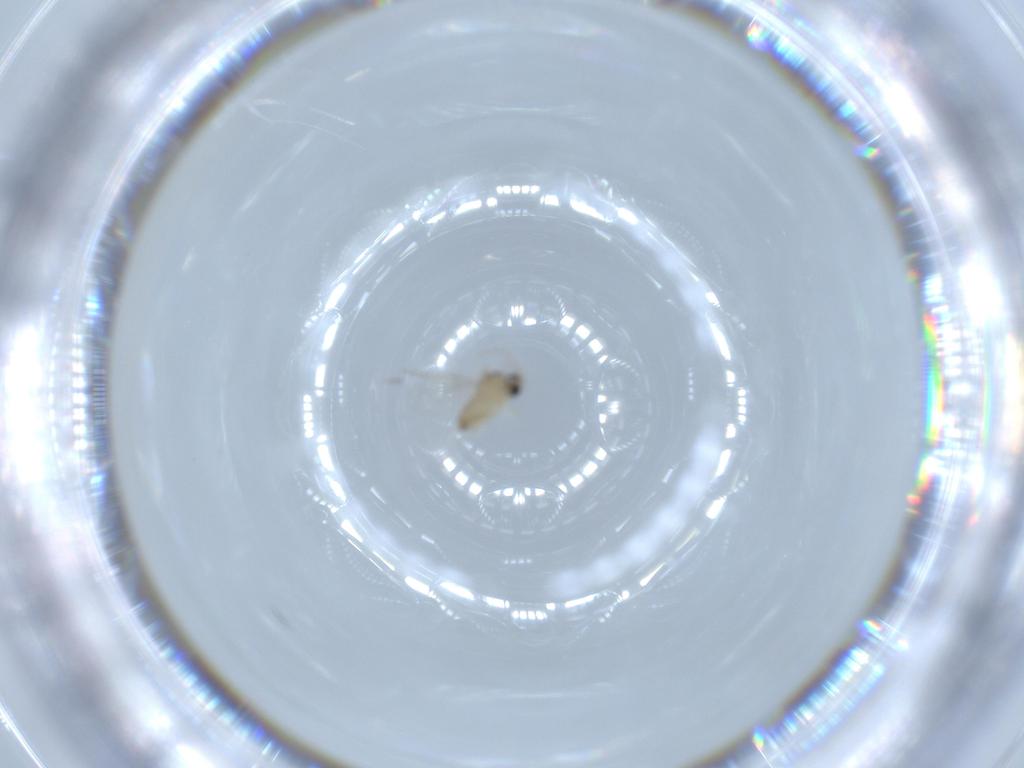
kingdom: Animalia
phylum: Arthropoda
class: Insecta
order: Diptera
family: Cecidomyiidae
